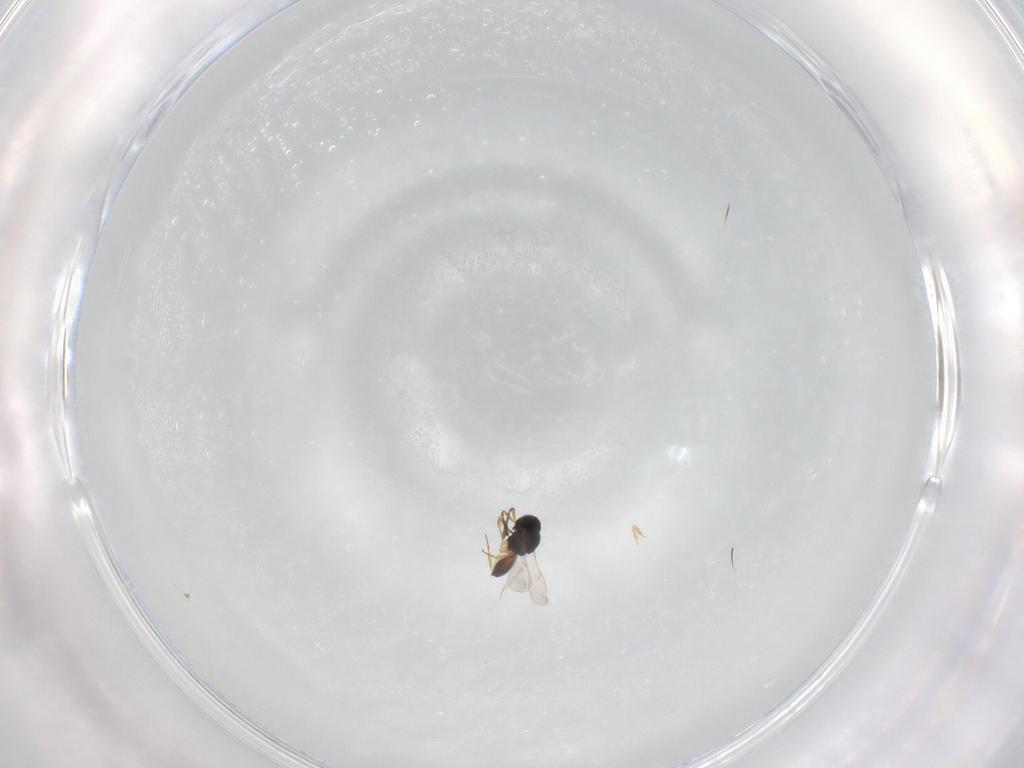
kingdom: Animalia
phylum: Arthropoda
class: Insecta
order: Hymenoptera
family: Scelionidae
